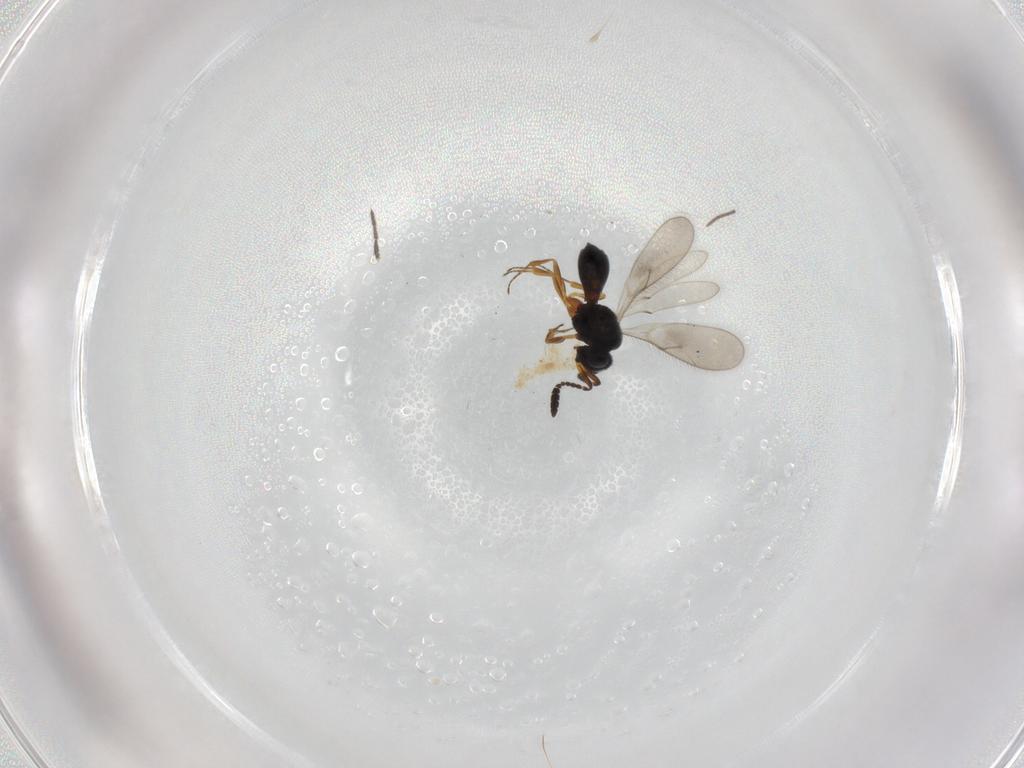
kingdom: Animalia
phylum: Arthropoda
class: Insecta
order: Hymenoptera
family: Scelionidae
